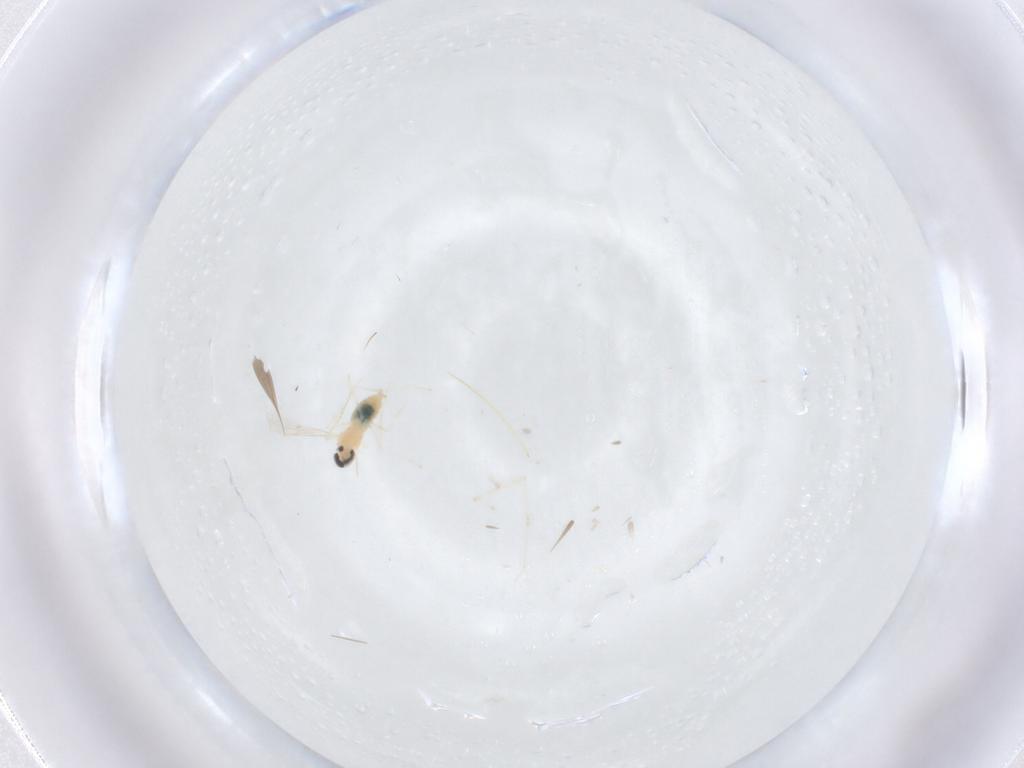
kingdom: Animalia
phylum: Arthropoda
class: Insecta
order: Diptera
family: Cecidomyiidae
